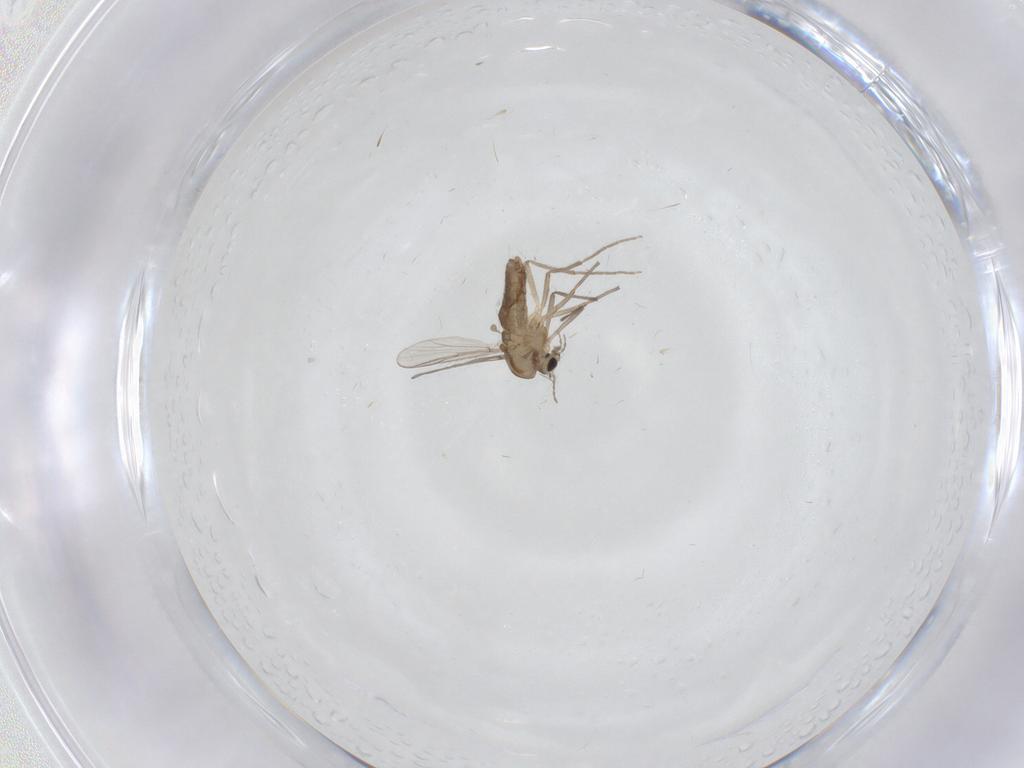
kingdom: Animalia
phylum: Arthropoda
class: Insecta
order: Diptera
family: Chironomidae
